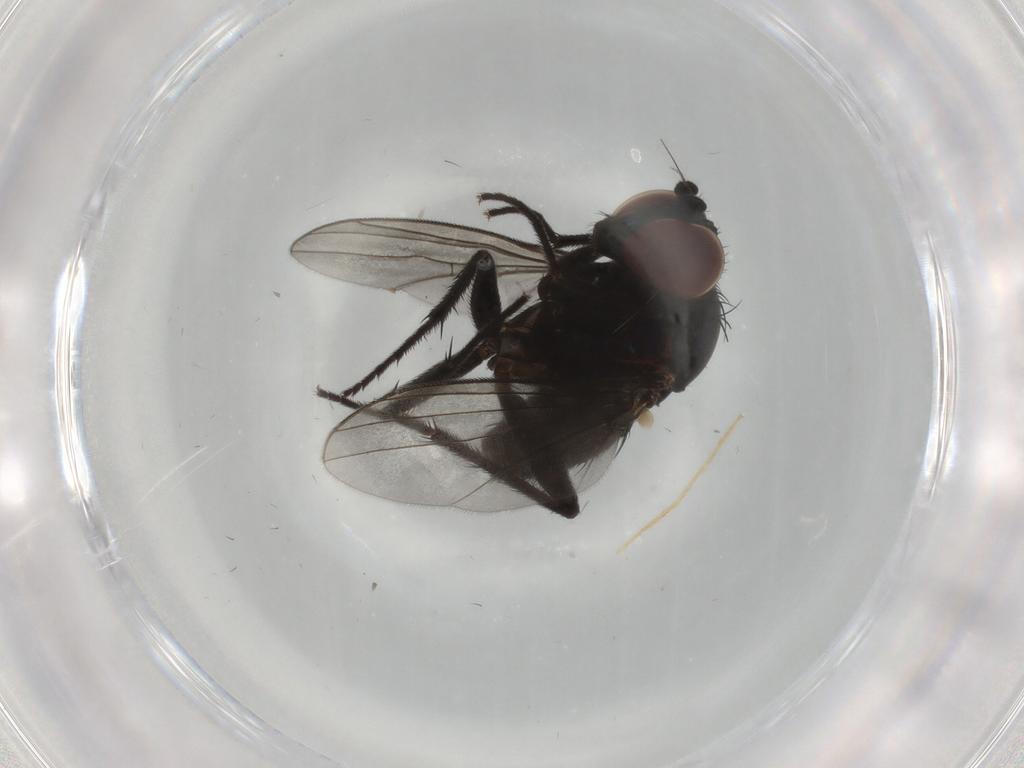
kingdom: Animalia
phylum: Arthropoda
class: Insecta
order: Diptera
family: Dolichopodidae
